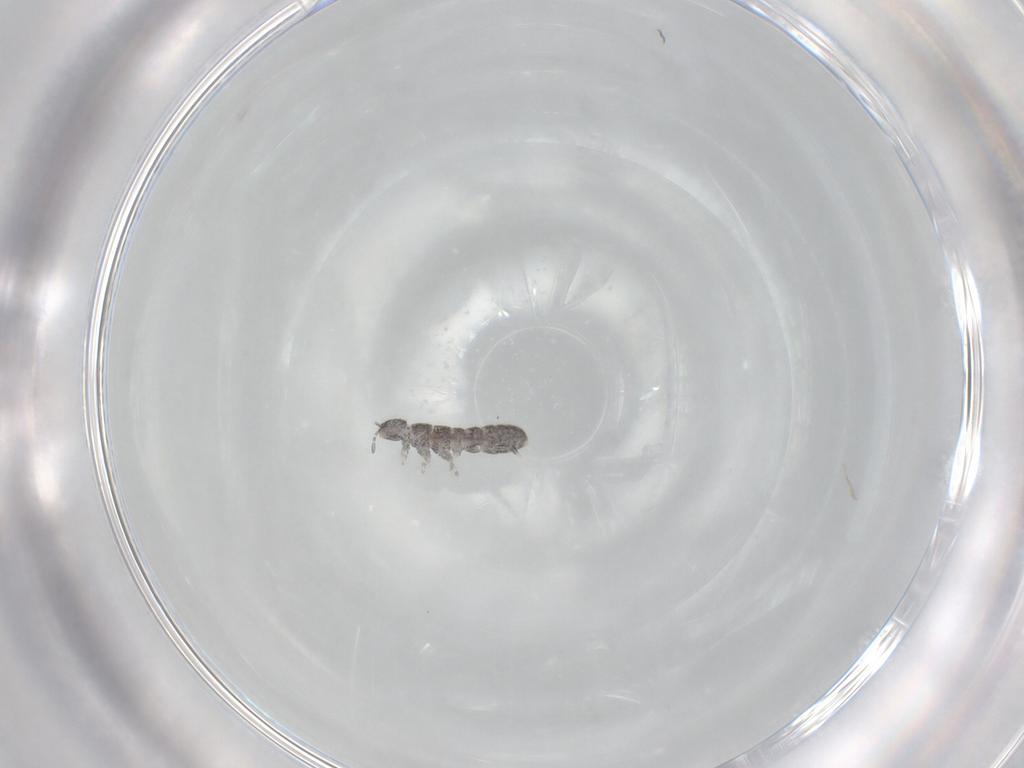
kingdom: Animalia
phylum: Arthropoda
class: Collembola
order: Entomobryomorpha
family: Isotomidae
